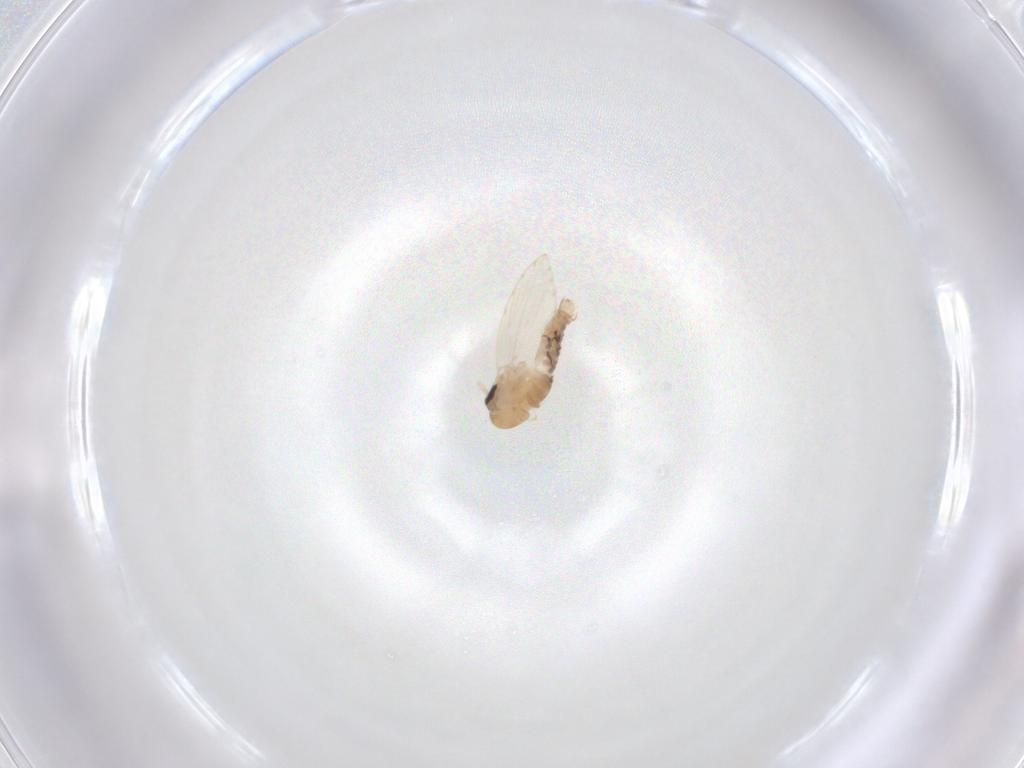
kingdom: Animalia
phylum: Arthropoda
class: Insecta
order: Diptera
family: Psychodidae
